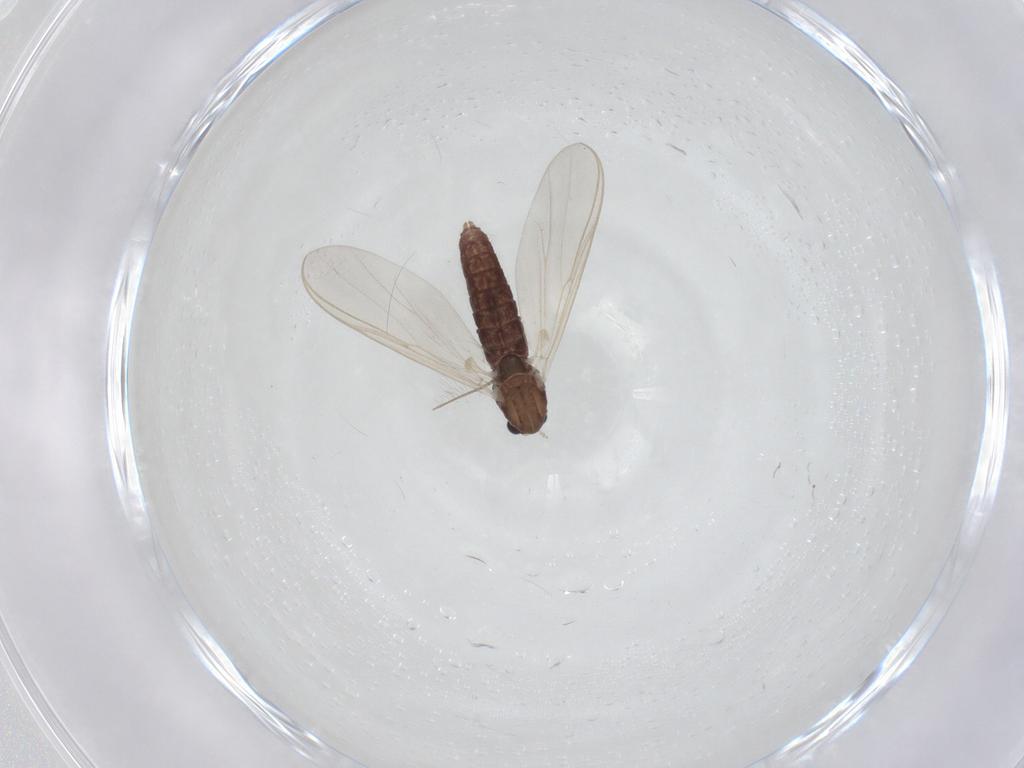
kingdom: Animalia
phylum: Arthropoda
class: Insecta
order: Diptera
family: Chironomidae
